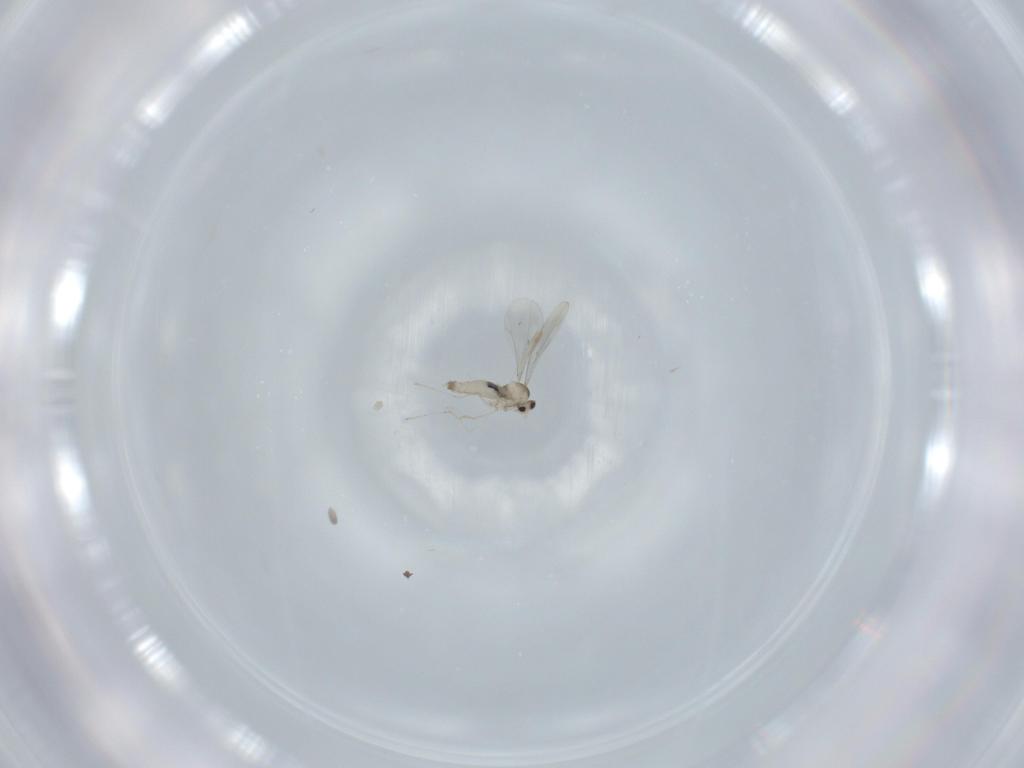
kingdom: Animalia
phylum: Arthropoda
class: Insecta
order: Diptera
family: Cecidomyiidae
